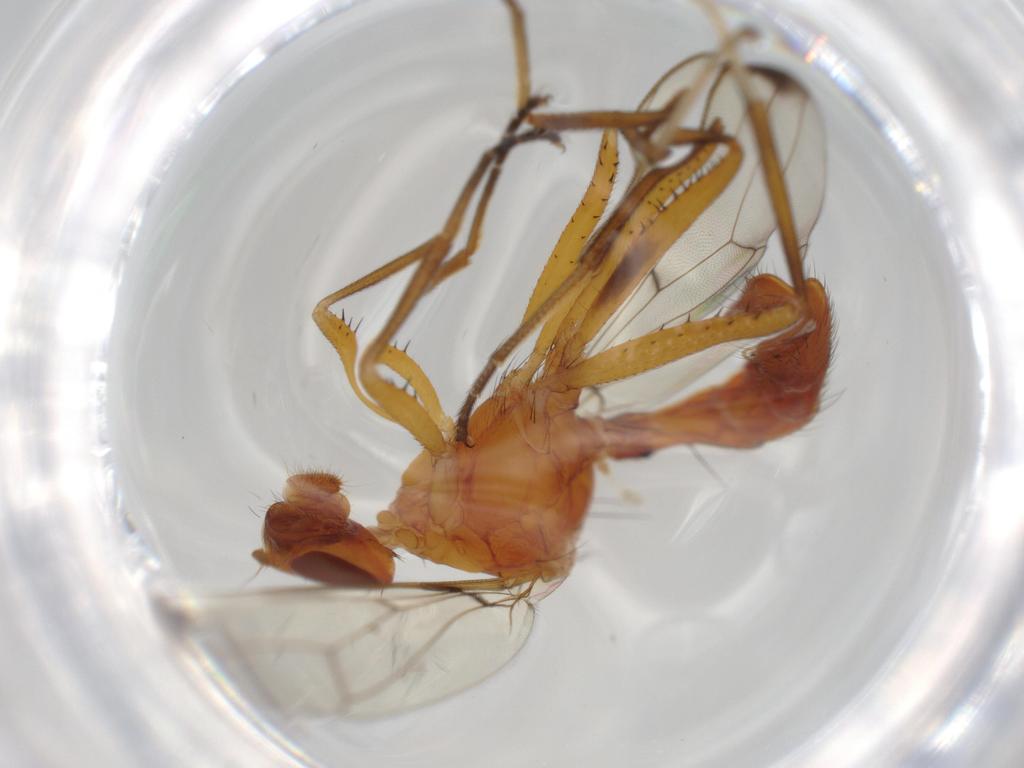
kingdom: Animalia
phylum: Arthropoda
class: Insecta
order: Diptera
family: Richardiidae
